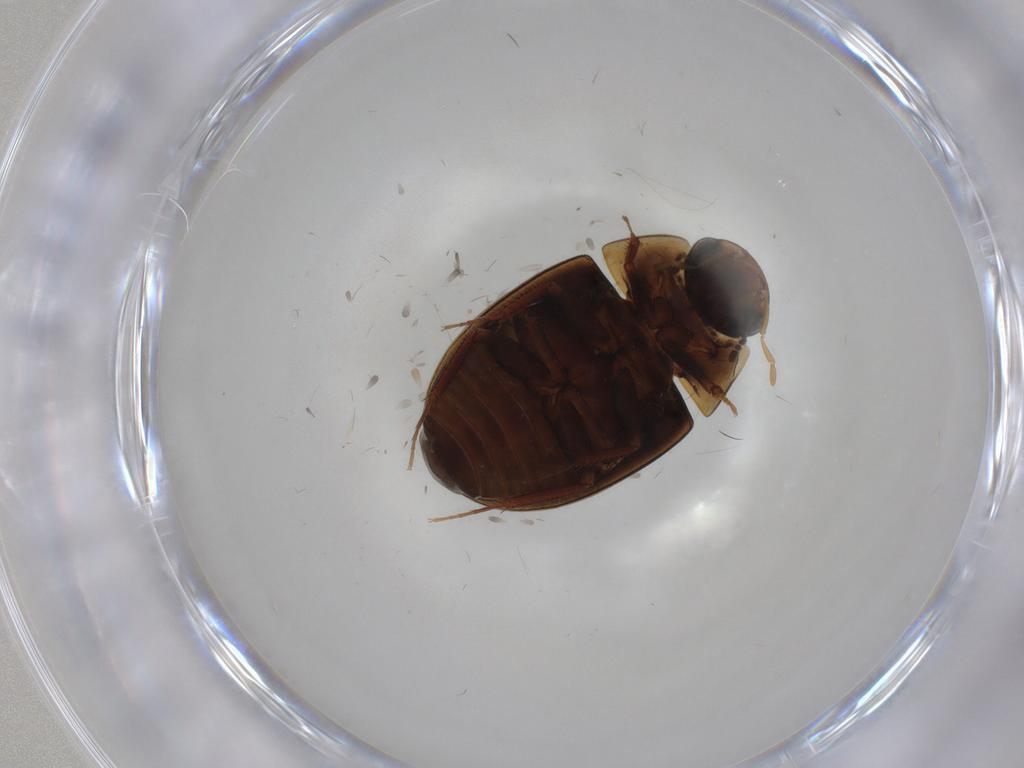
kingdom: Animalia
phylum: Arthropoda
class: Insecta
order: Coleoptera
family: Ptilodactylidae
